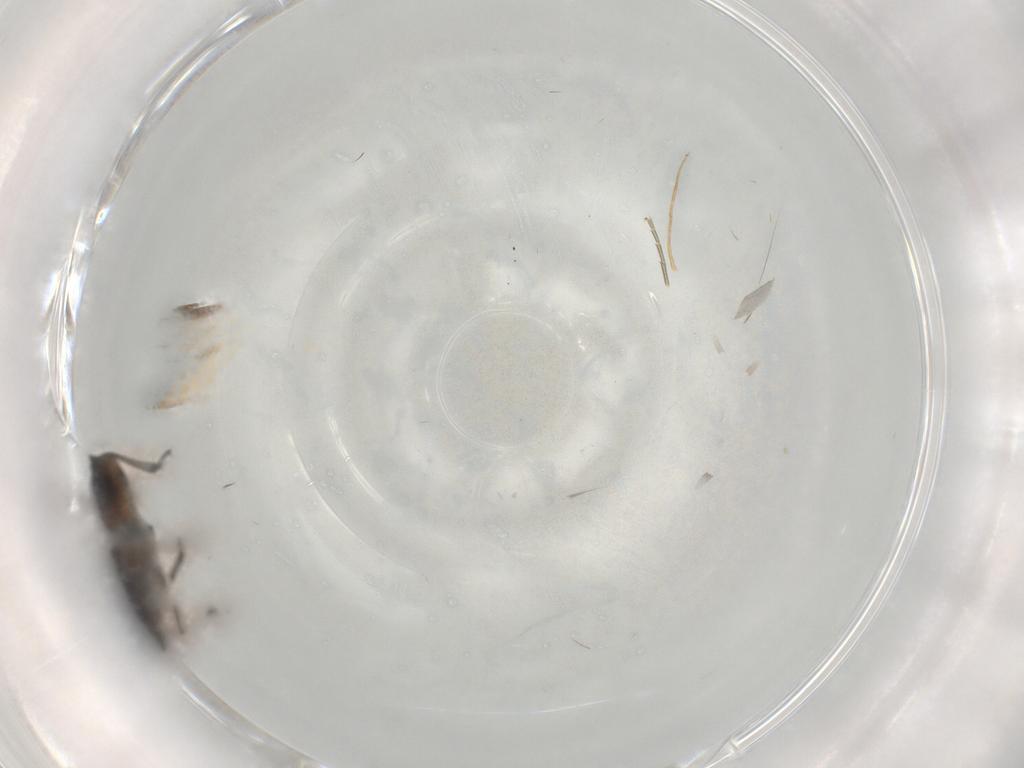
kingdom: Animalia
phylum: Arthropoda
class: Insecta
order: Coleoptera
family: Monotomidae
